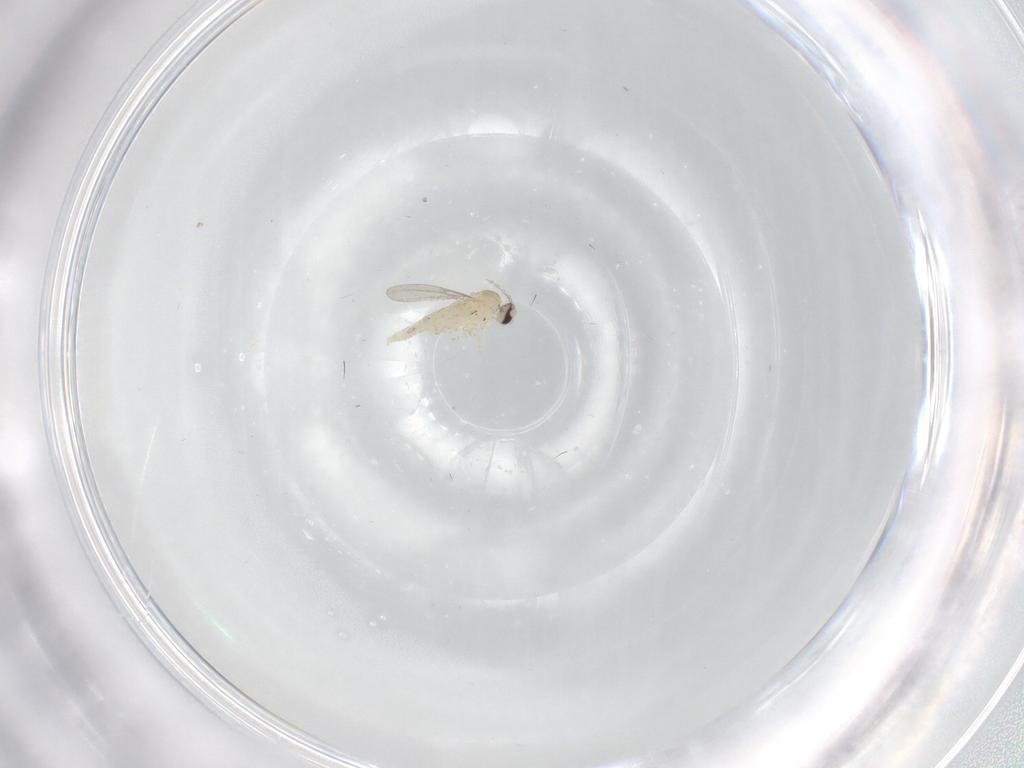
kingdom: Animalia
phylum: Arthropoda
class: Insecta
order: Diptera
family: Cecidomyiidae
